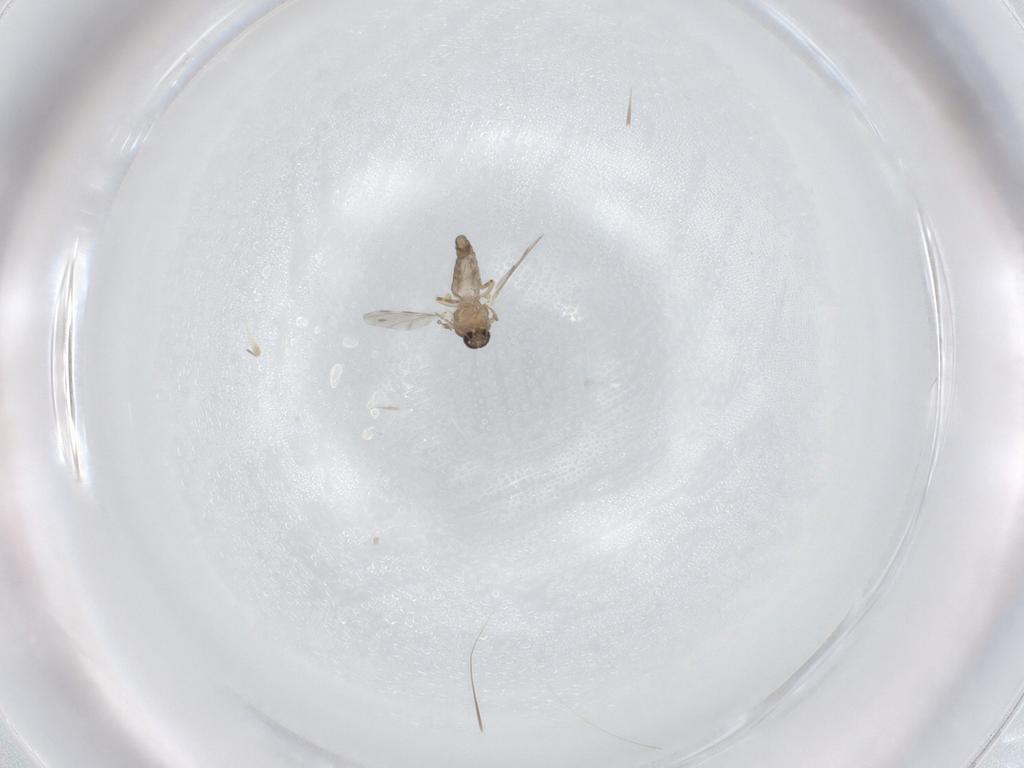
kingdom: Animalia
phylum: Arthropoda
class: Insecta
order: Diptera
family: Ceratopogonidae
